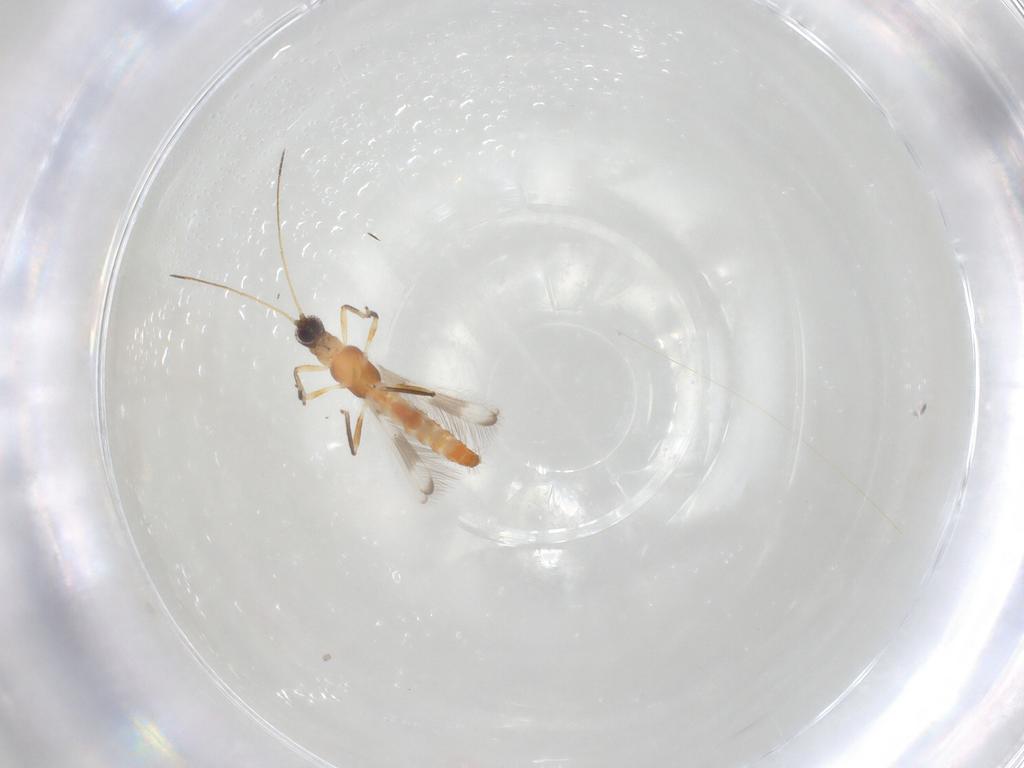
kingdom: Animalia
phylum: Arthropoda
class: Insecta
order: Thysanoptera
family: Aeolothripidae
